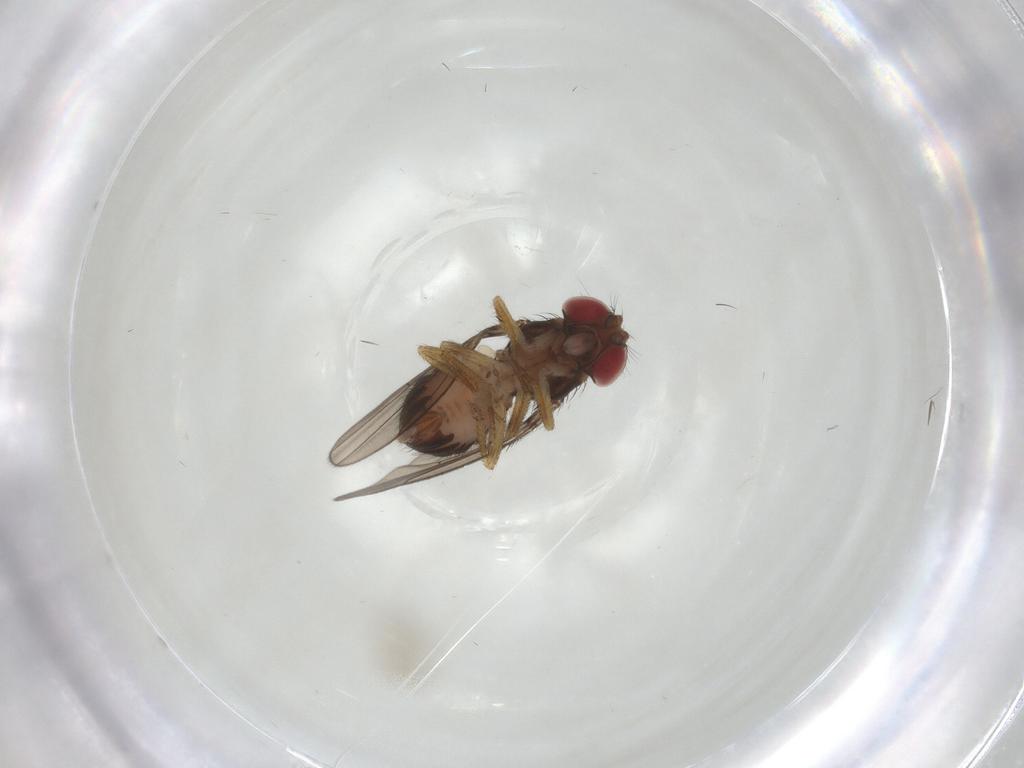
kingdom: Animalia
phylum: Arthropoda
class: Insecta
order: Diptera
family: Drosophilidae
